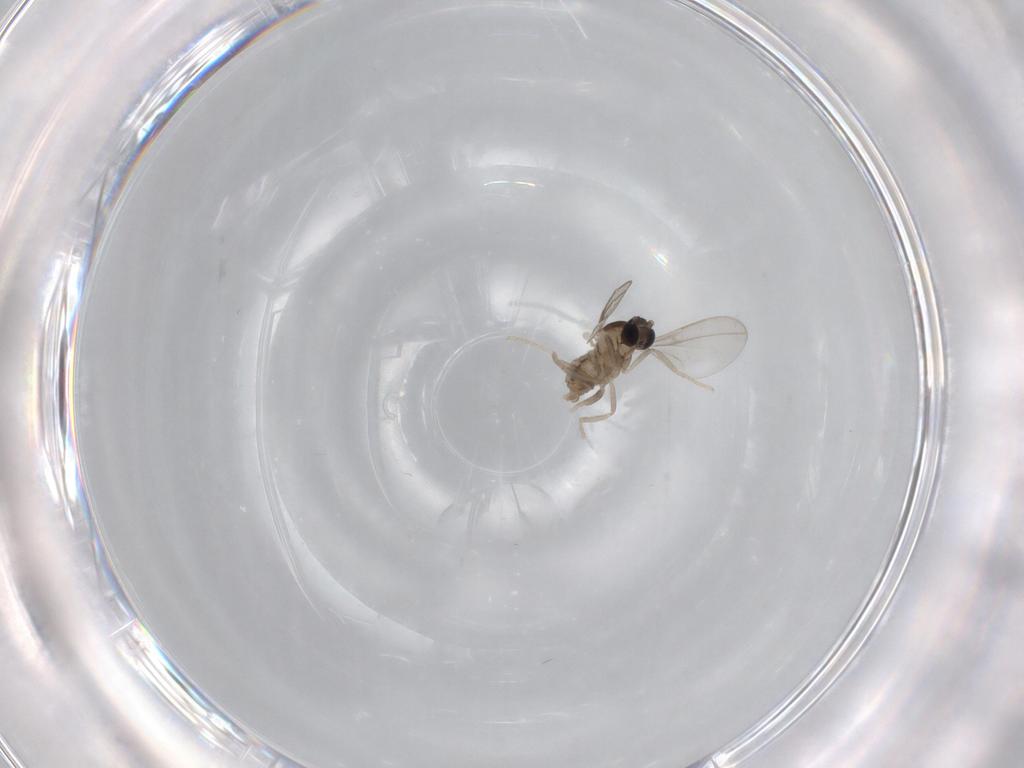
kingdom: Animalia
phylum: Arthropoda
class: Insecta
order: Diptera
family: Cecidomyiidae
